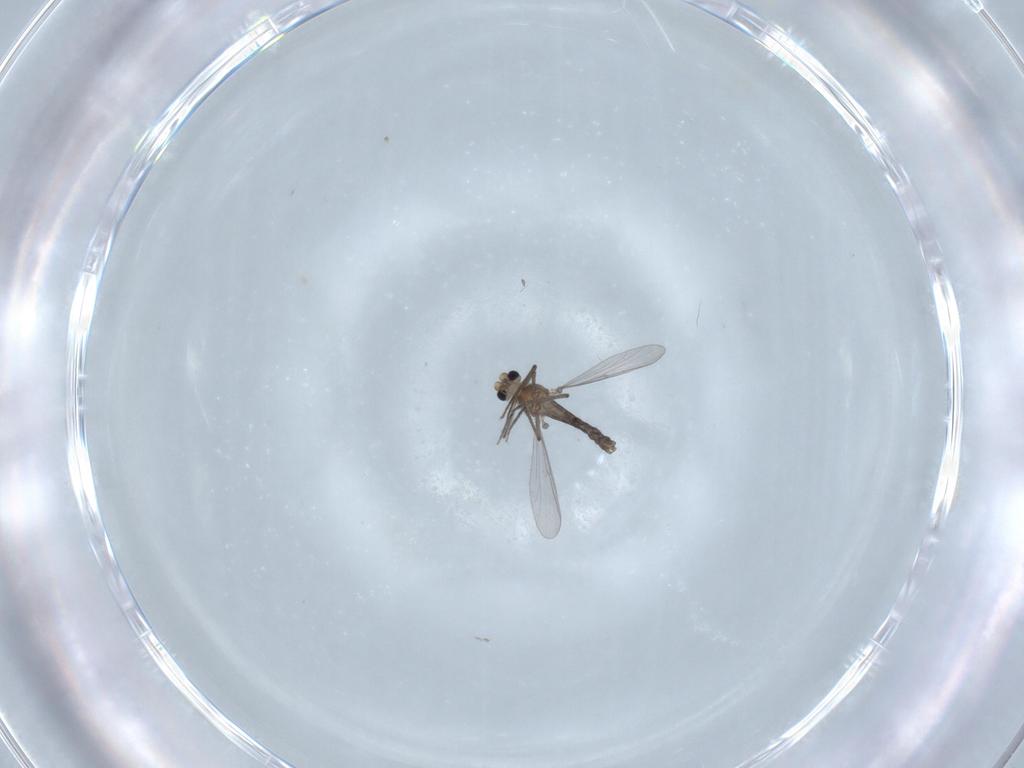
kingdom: Animalia
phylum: Arthropoda
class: Insecta
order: Diptera
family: Chironomidae
